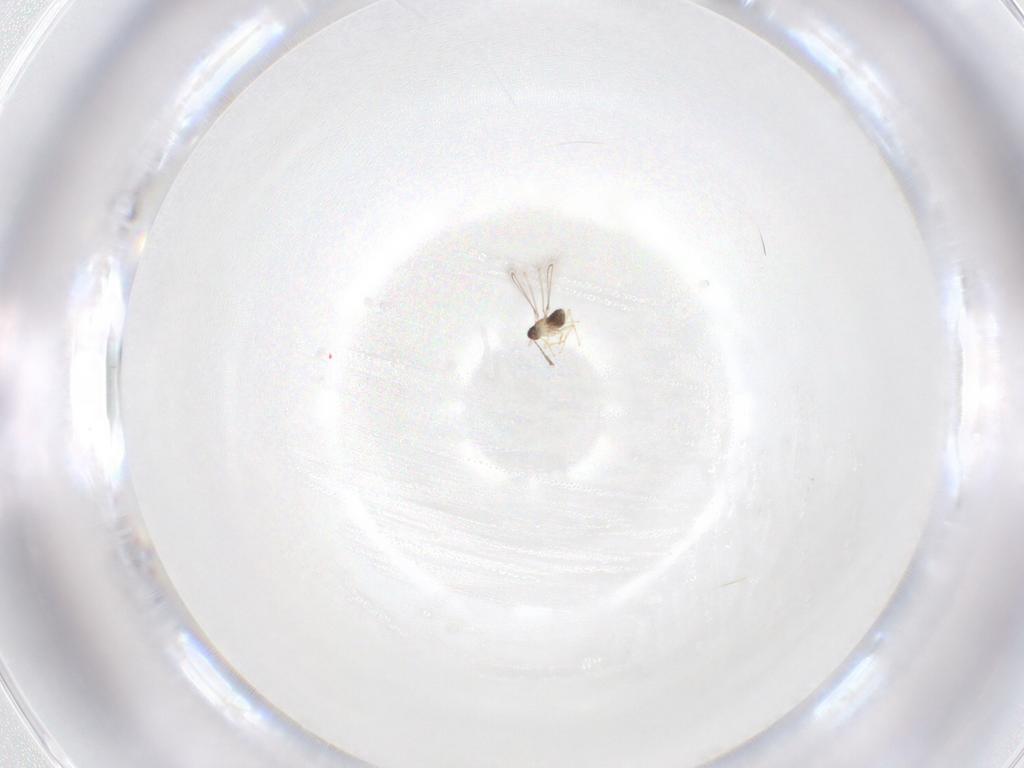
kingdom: Animalia
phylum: Arthropoda
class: Insecta
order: Hymenoptera
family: Mymaridae
